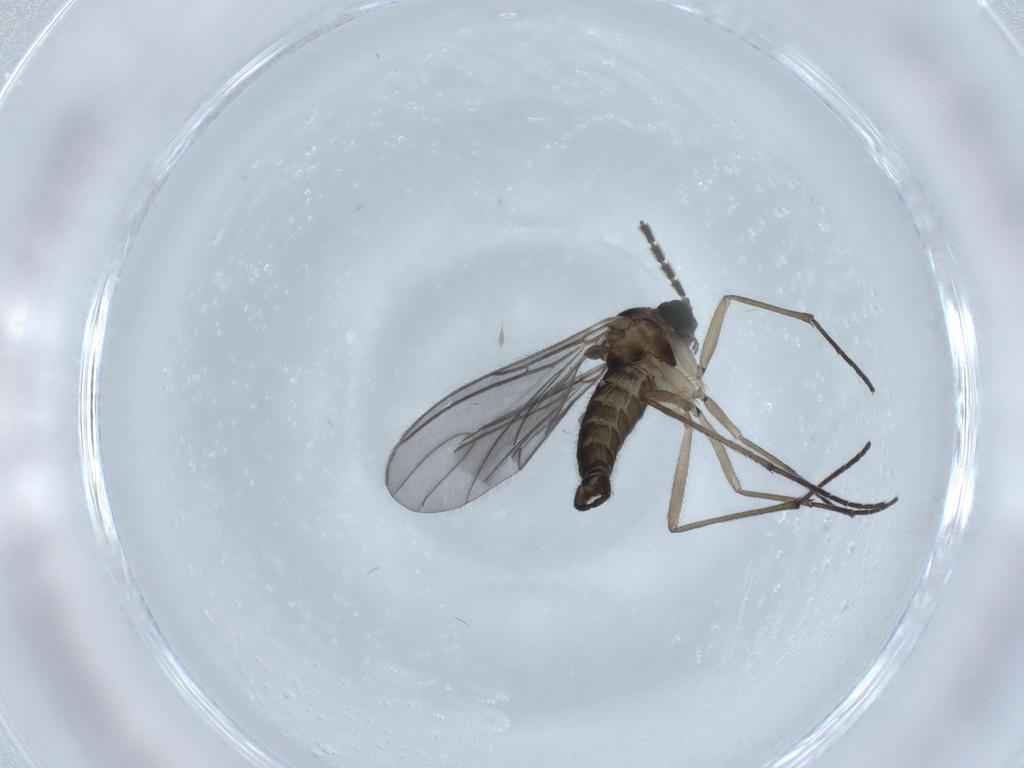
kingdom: Animalia
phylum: Arthropoda
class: Insecta
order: Diptera
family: Sciaridae
